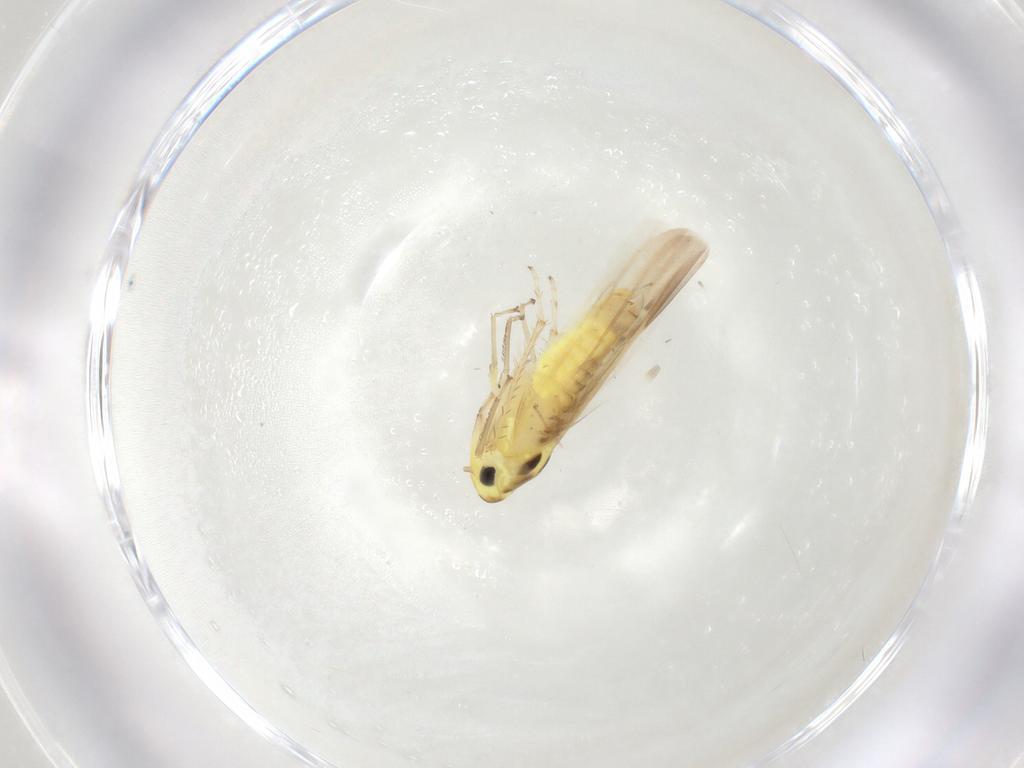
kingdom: Animalia
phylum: Arthropoda
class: Insecta
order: Hemiptera
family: Cicadellidae
